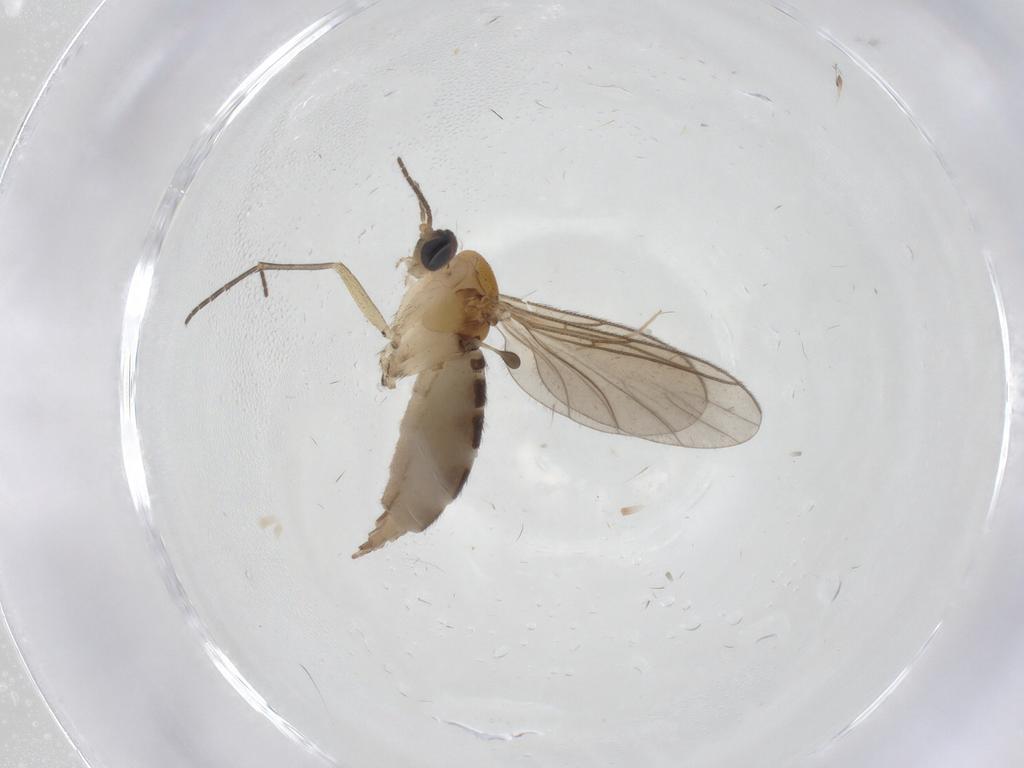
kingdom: Animalia
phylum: Arthropoda
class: Insecta
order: Diptera
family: Sciaridae
